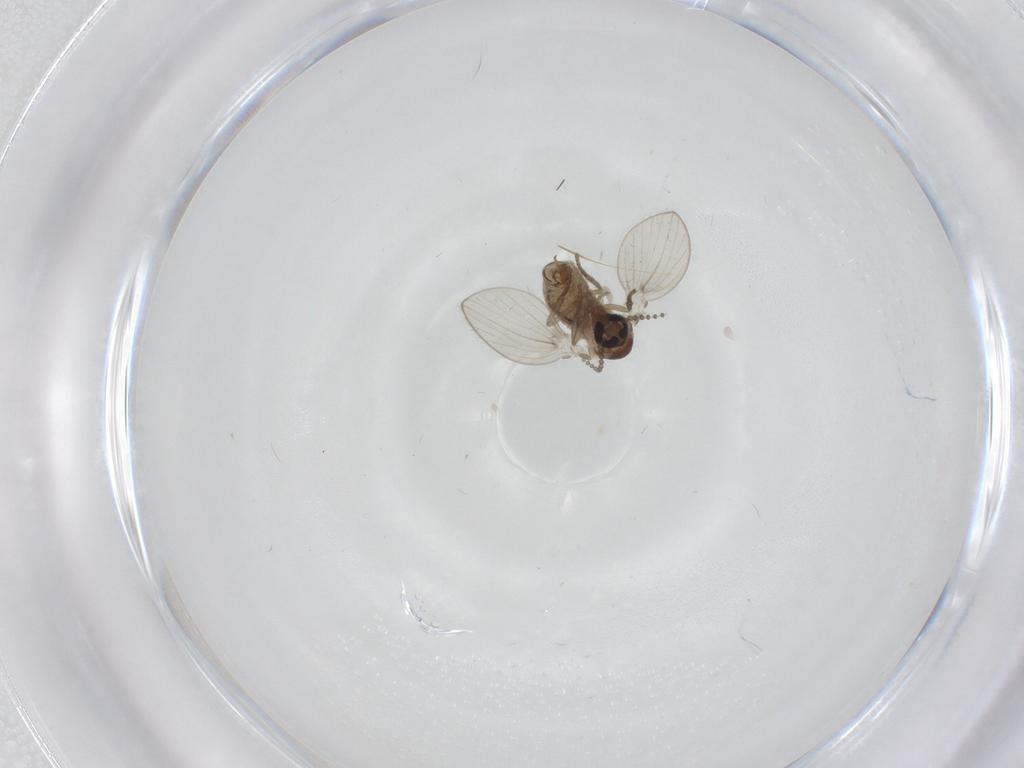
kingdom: Animalia
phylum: Arthropoda
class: Insecta
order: Diptera
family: Psychodidae
